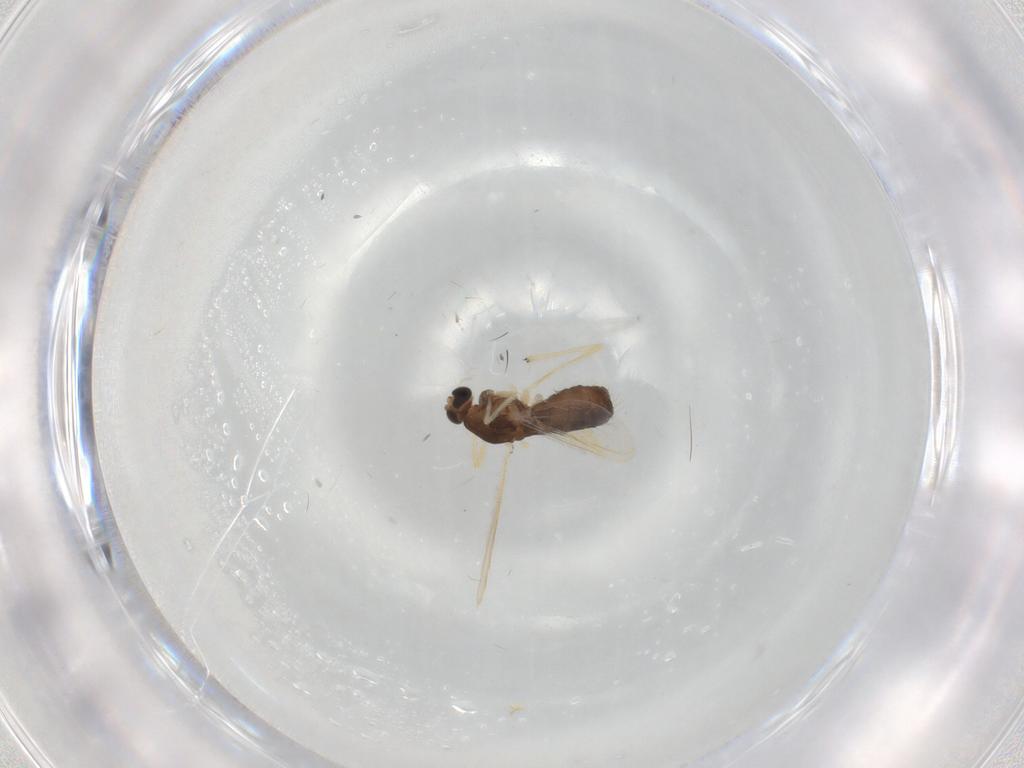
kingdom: Animalia
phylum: Arthropoda
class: Insecta
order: Diptera
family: Chironomidae
